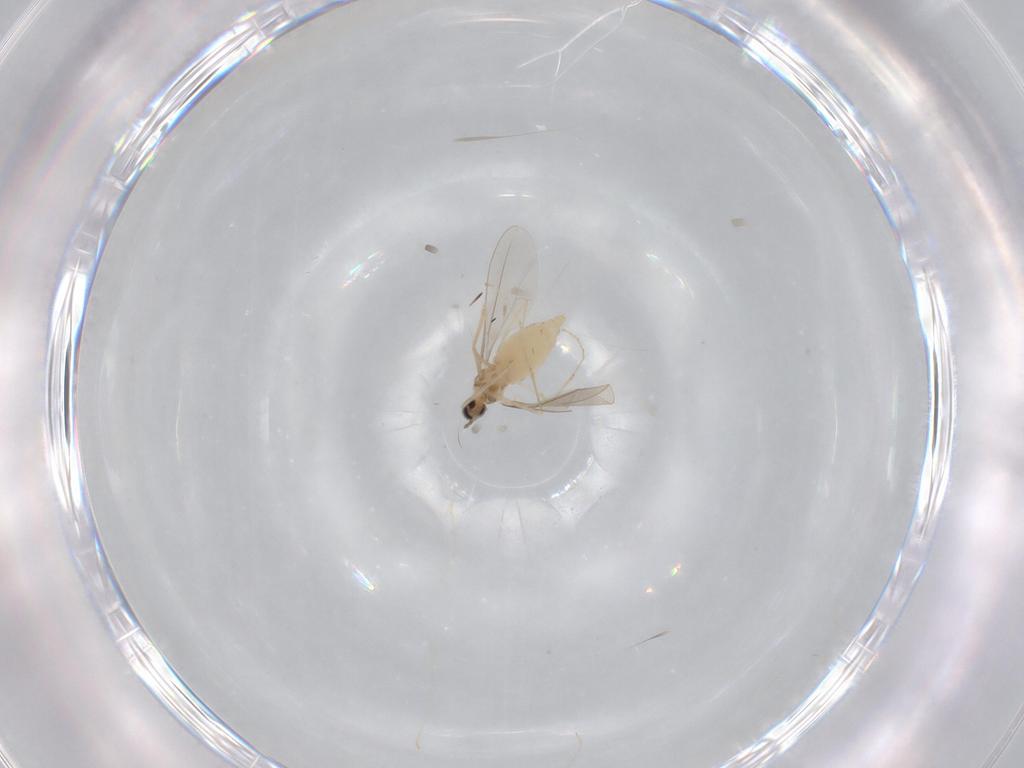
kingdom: Animalia
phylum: Arthropoda
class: Insecta
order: Diptera
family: Cecidomyiidae
